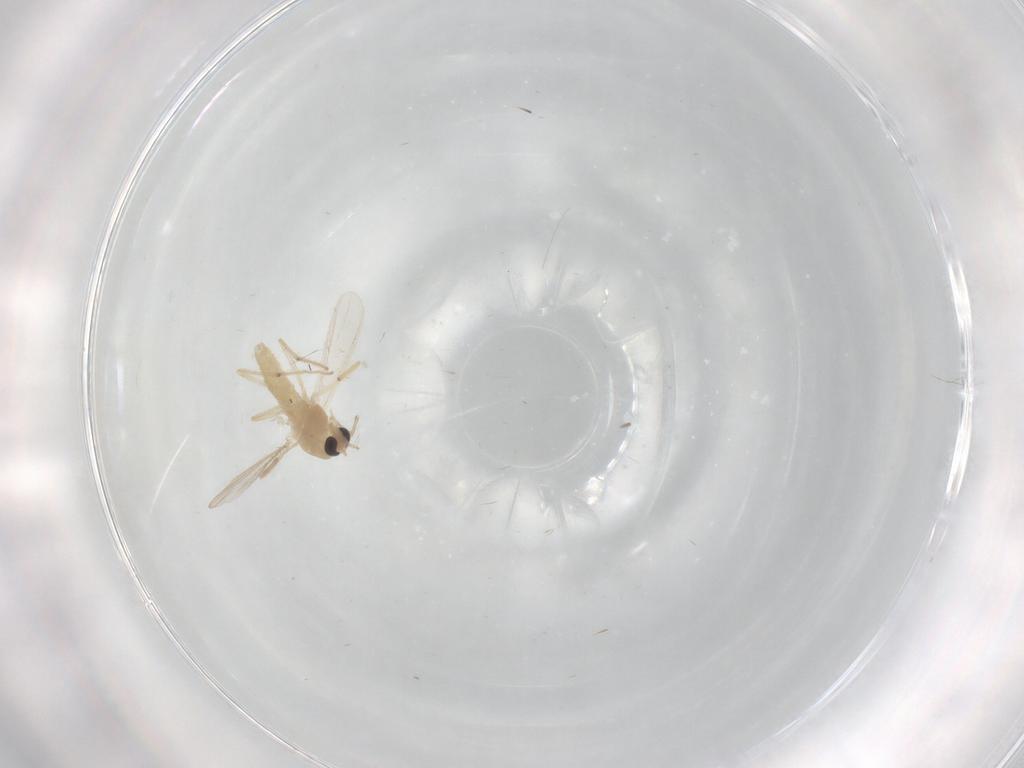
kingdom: Animalia
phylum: Arthropoda
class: Insecta
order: Diptera
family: Chironomidae
